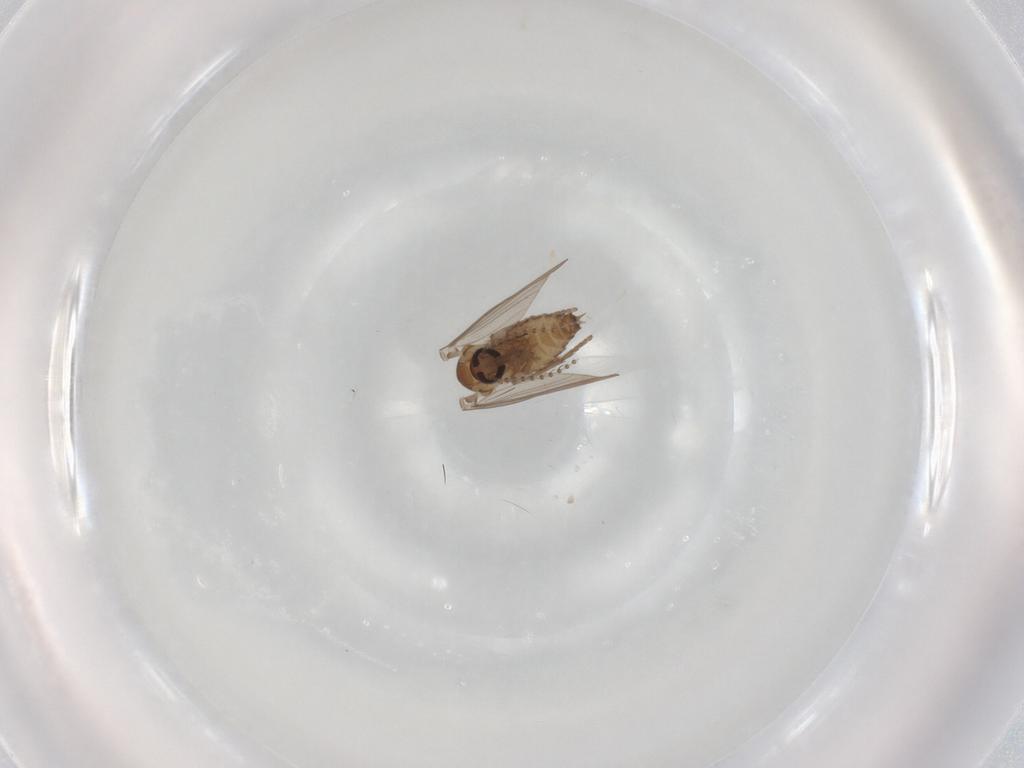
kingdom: Animalia
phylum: Arthropoda
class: Insecta
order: Diptera
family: Psychodidae
